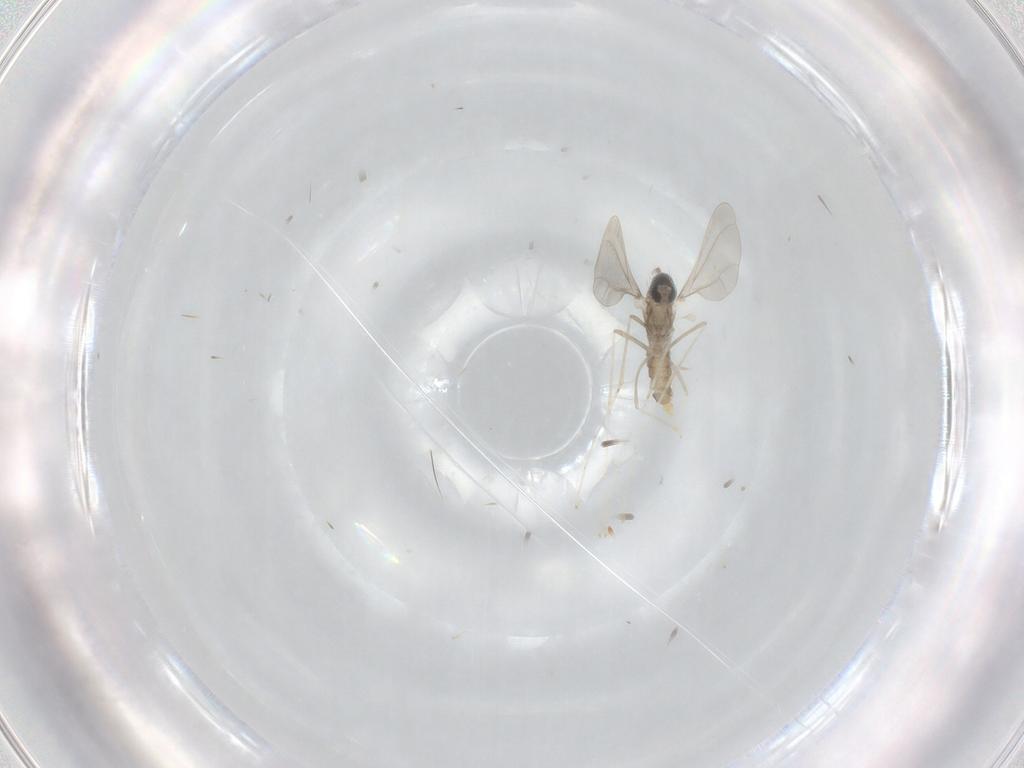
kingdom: Animalia
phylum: Arthropoda
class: Insecta
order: Diptera
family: Cecidomyiidae
